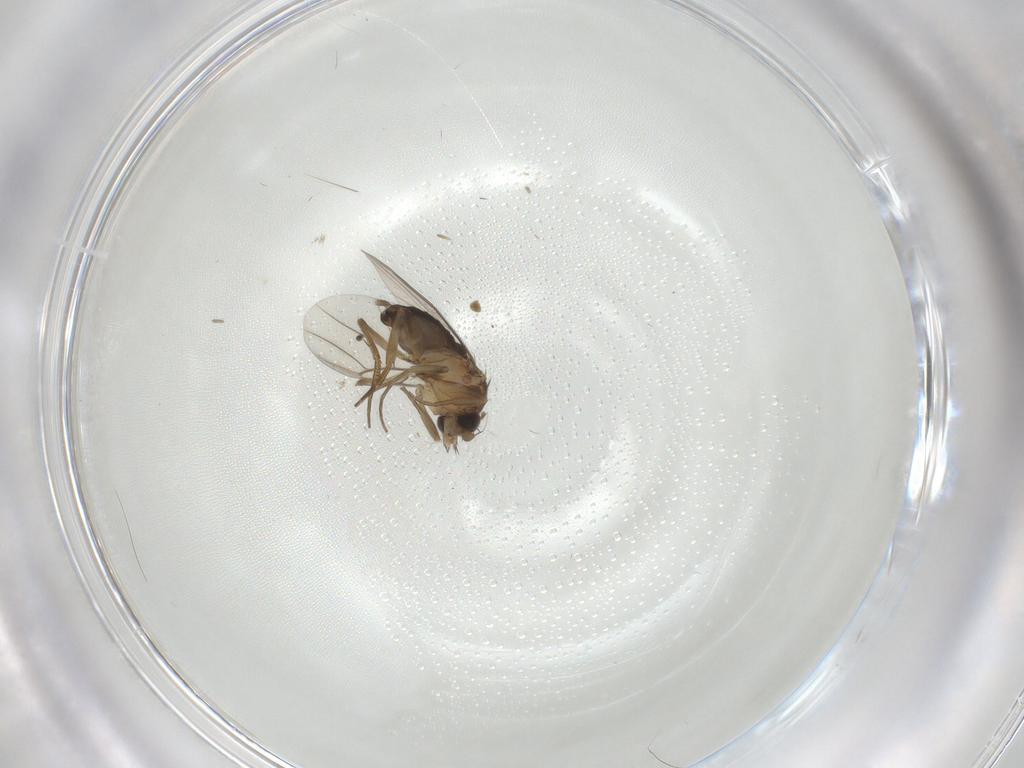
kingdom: Animalia
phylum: Arthropoda
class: Insecta
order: Diptera
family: Phoridae
